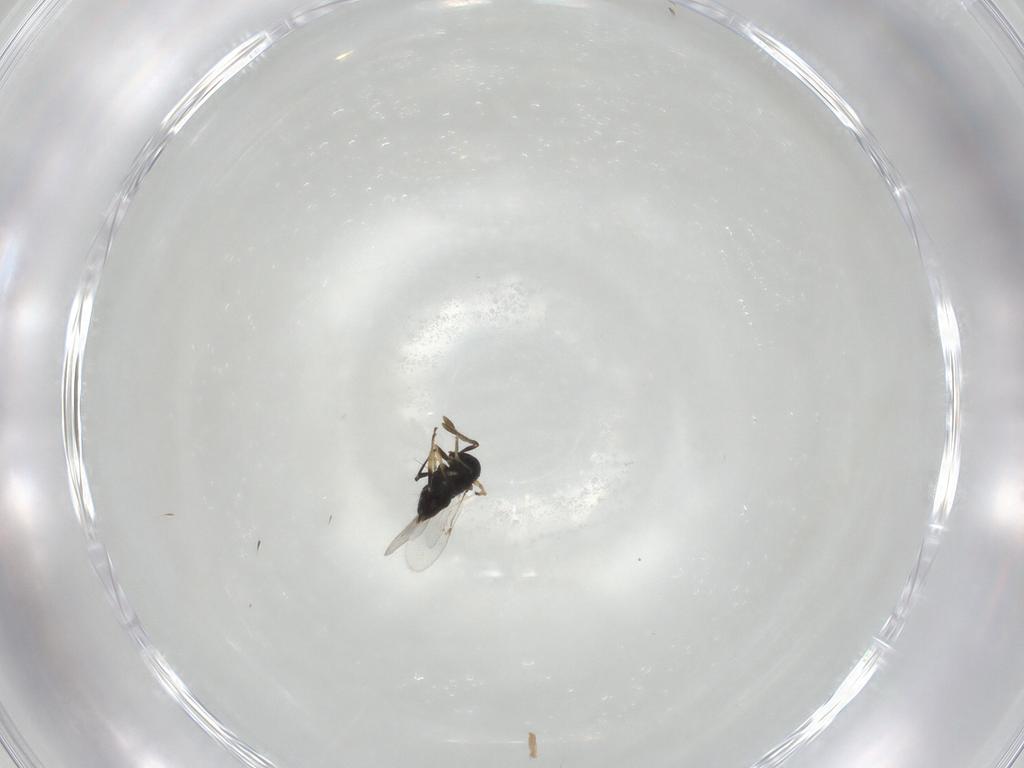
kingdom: Animalia
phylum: Arthropoda
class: Insecta
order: Hymenoptera
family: Encyrtidae
